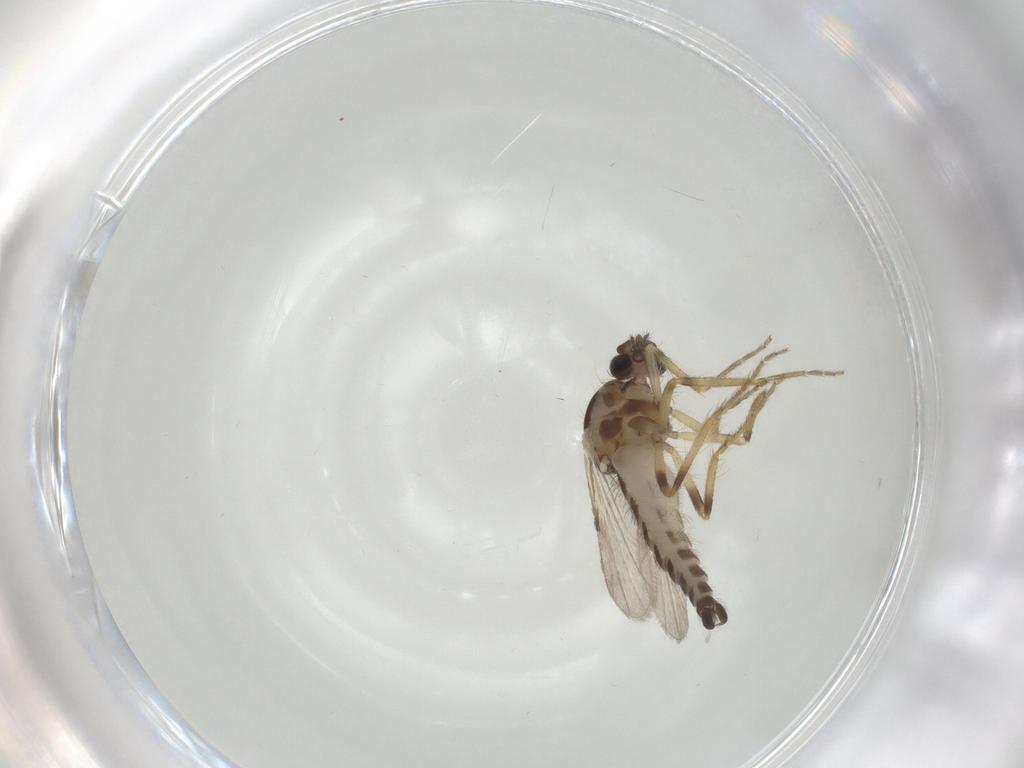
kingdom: Animalia
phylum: Arthropoda
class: Insecta
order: Diptera
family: Ceratopogonidae
